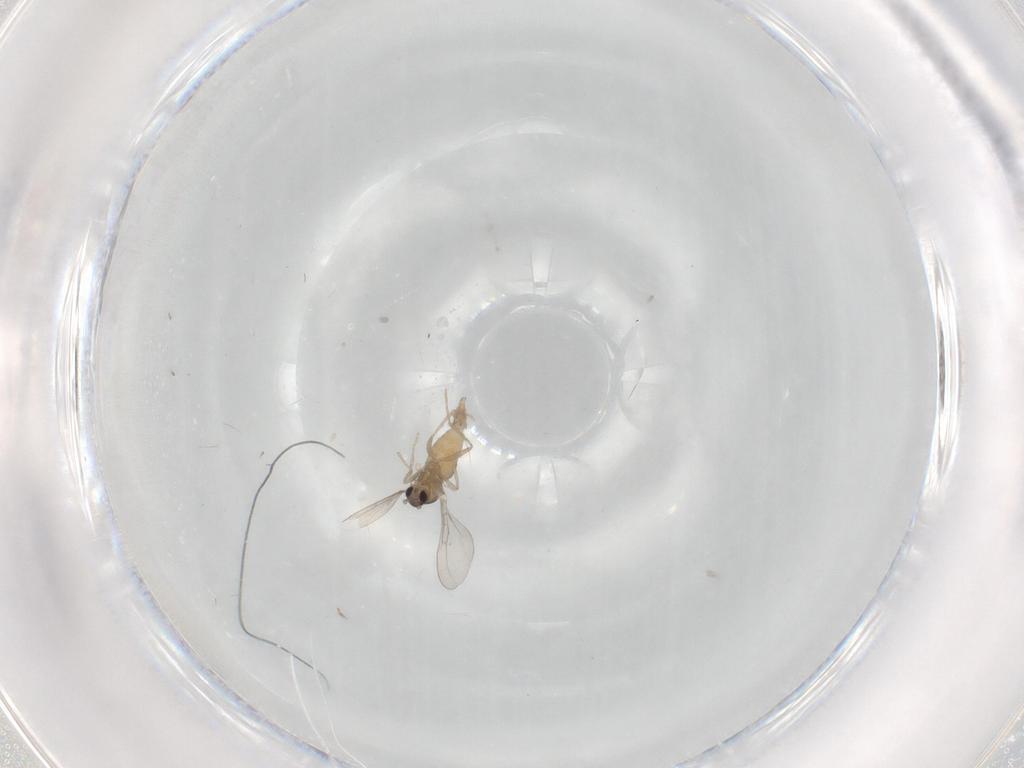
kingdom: Animalia
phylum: Arthropoda
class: Insecta
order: Diptera
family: Cecidomyiidae
